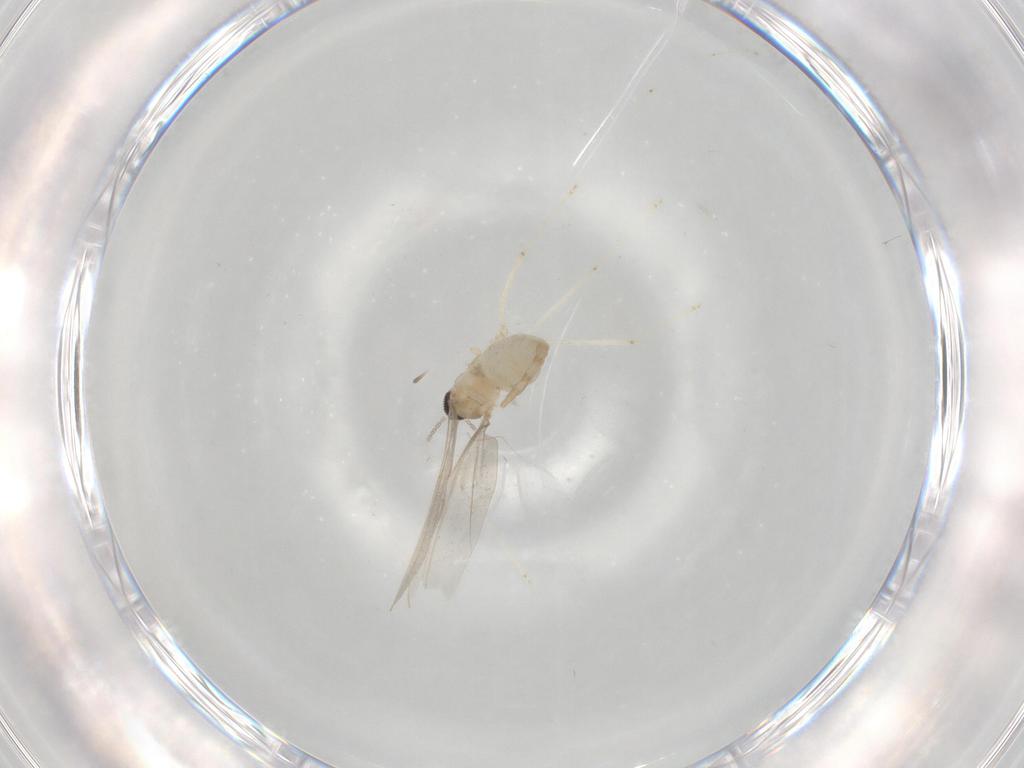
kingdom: Animalia
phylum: Arthropoda
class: Insecta
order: Diptera
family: Cecidomyiidae
